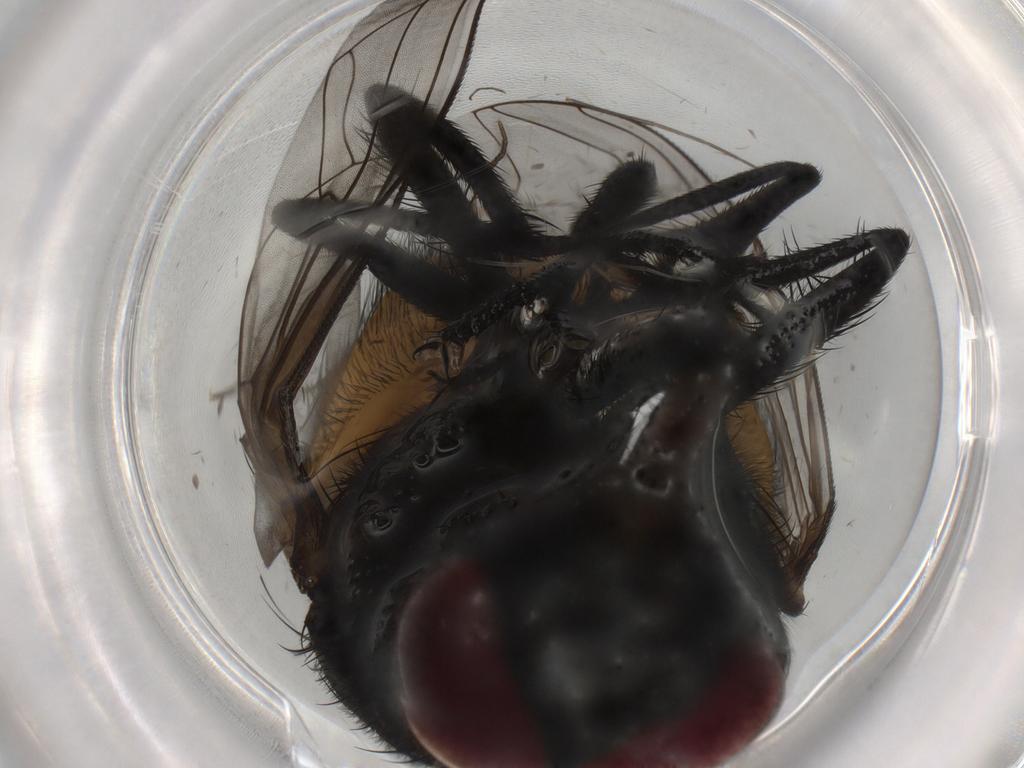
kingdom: Animalia
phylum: Arthropoda
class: Insecta
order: Diptera
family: Muscidae
